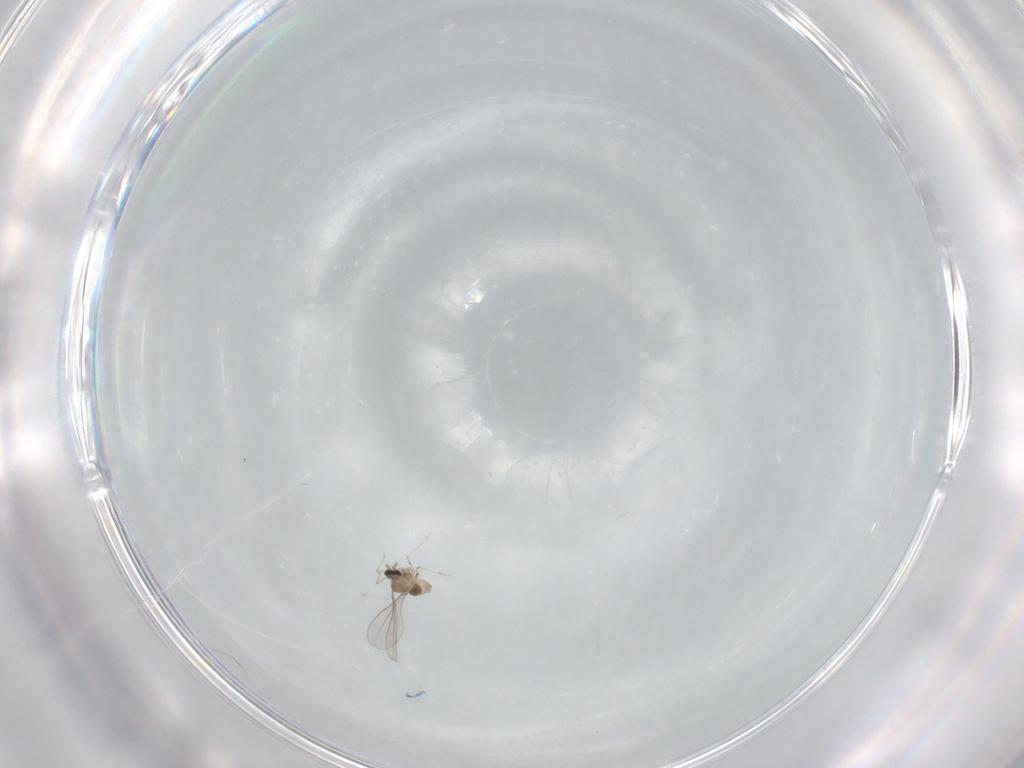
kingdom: Animalia
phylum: Arthropoda
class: Insecta
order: Diptera
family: Cecidomyiidae
